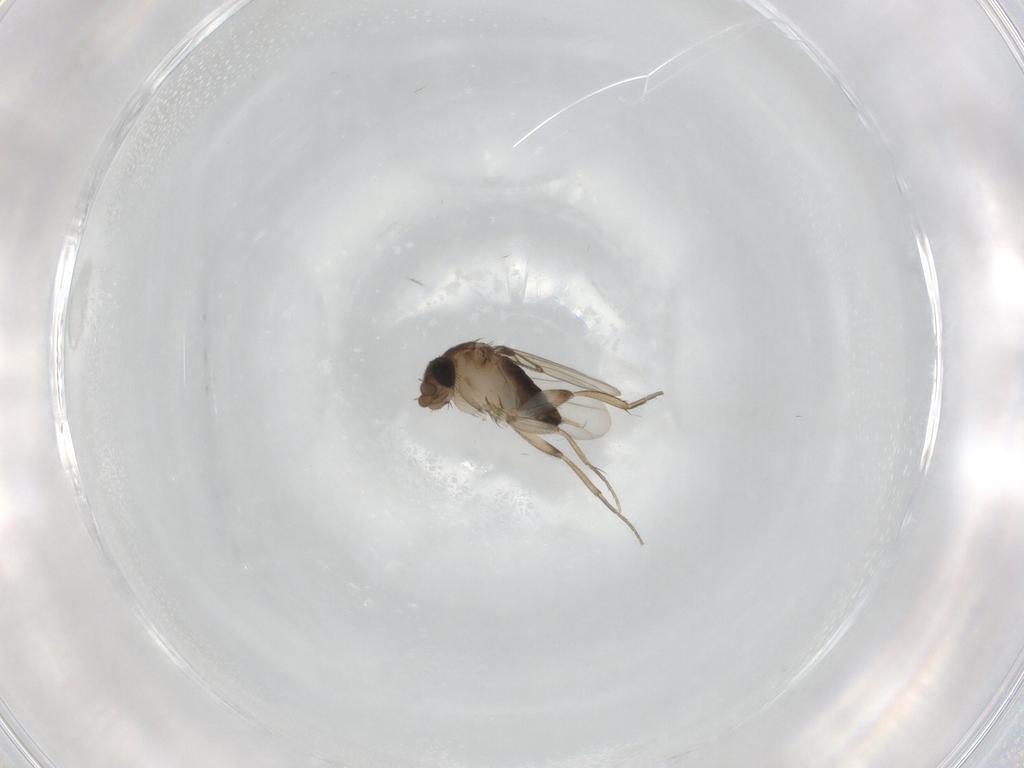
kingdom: Animalia
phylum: Arthropoda
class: Insecta
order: Diptera
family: Phoridae
